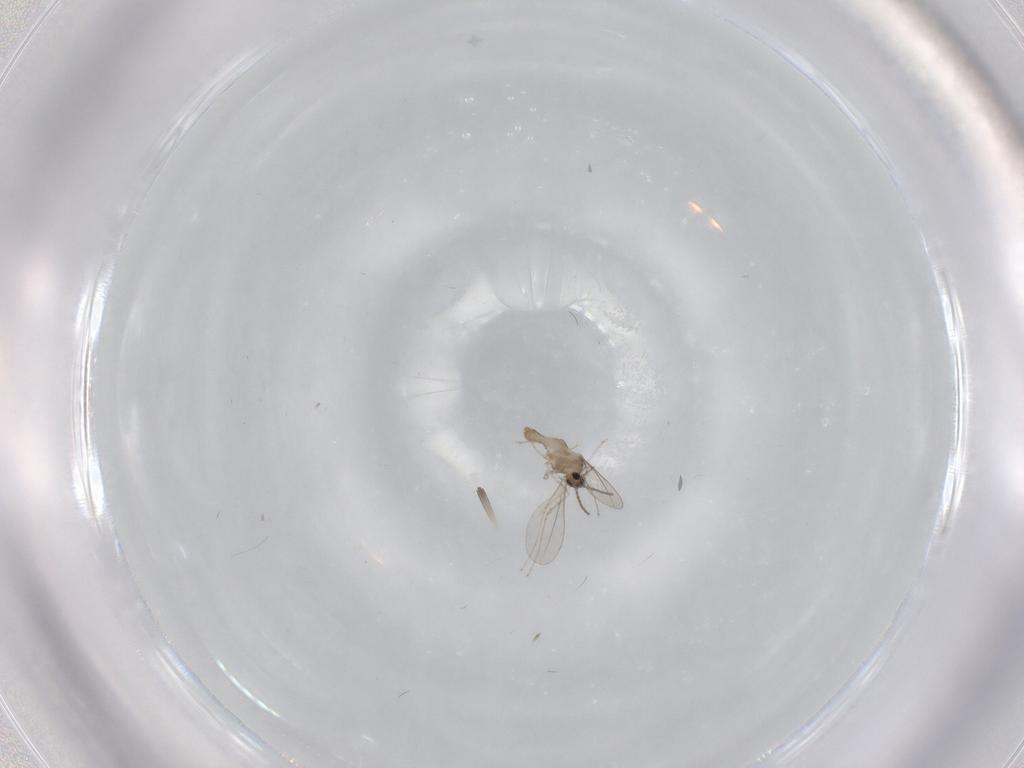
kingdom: Animalia
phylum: Arthropoda
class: Insecta
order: Diptera
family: Cecidomyiidae
